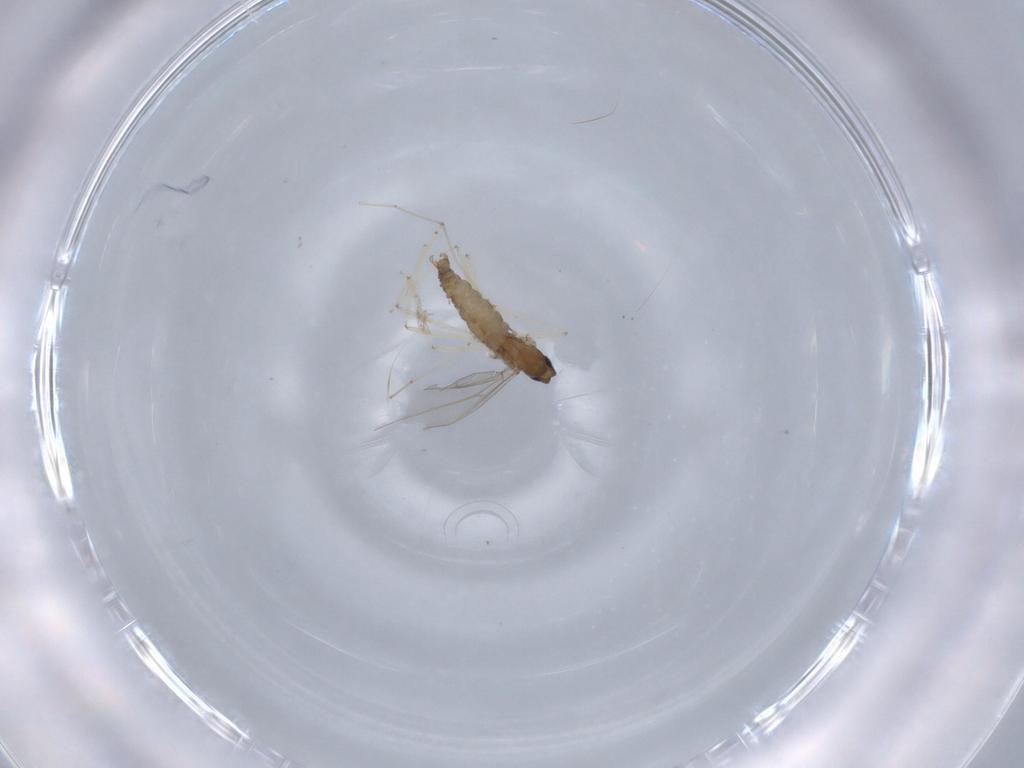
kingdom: Animalia
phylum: Arthropoda
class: Insecta
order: Diptera
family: Cecidomyiidae
